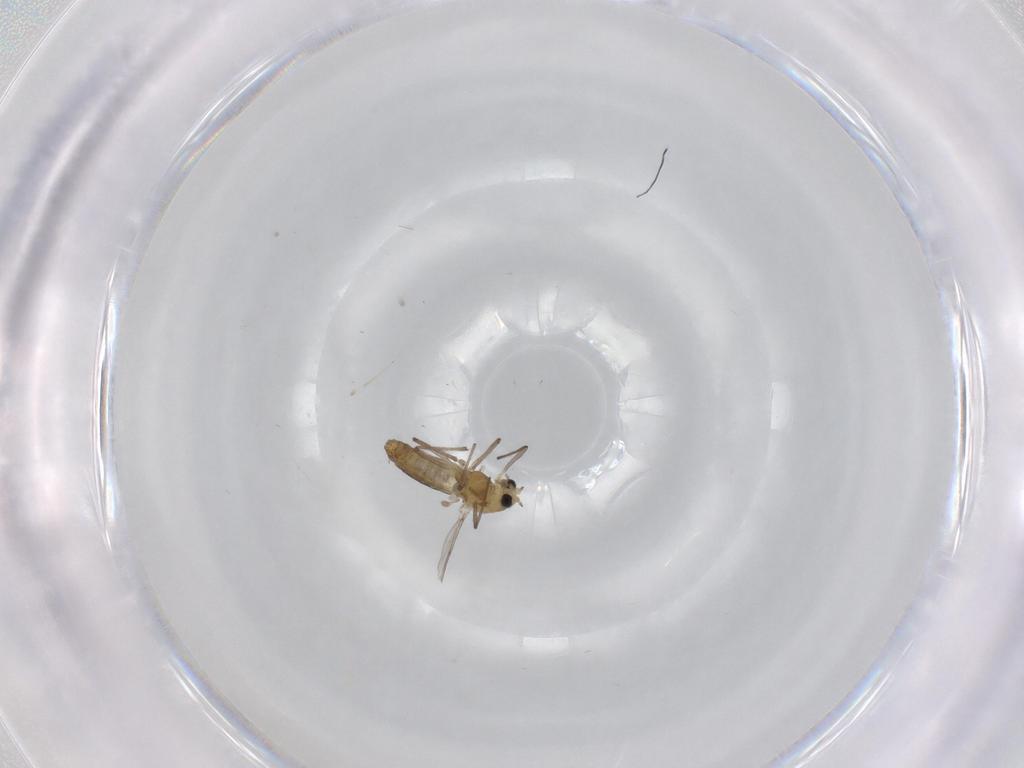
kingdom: Animalia
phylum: Arthropoda
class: Insecta
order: Diptera
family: Chironomidae
